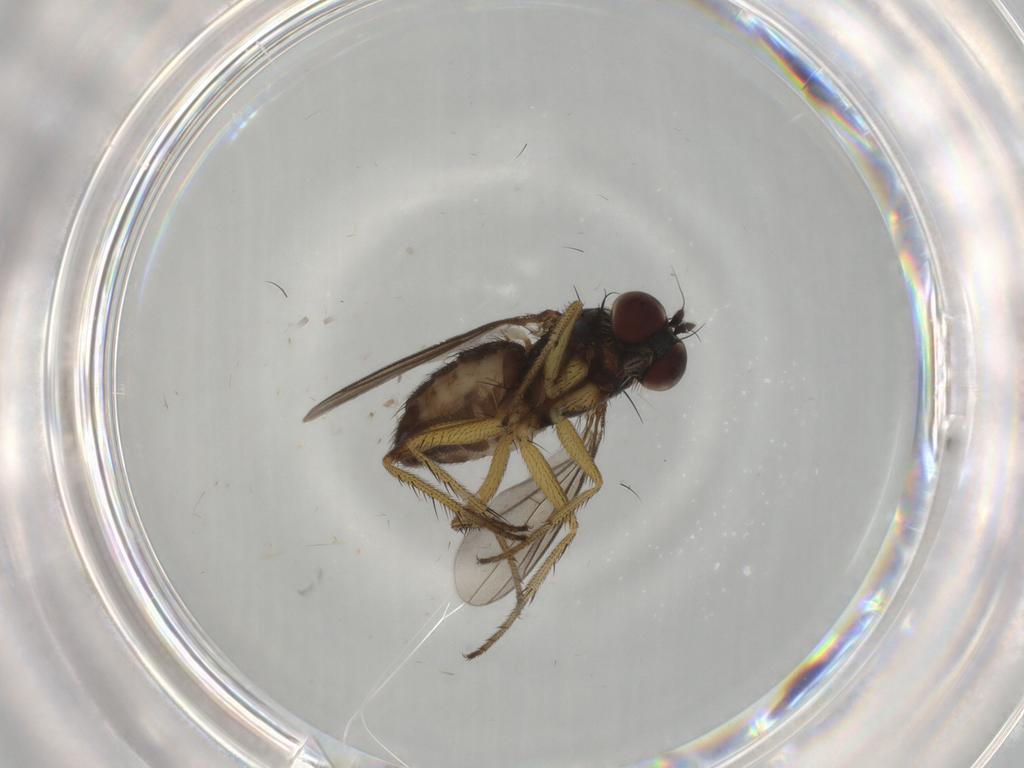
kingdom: Animalia
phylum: Arthropoda
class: Insecta
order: Diptera
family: Dolichopodidae
